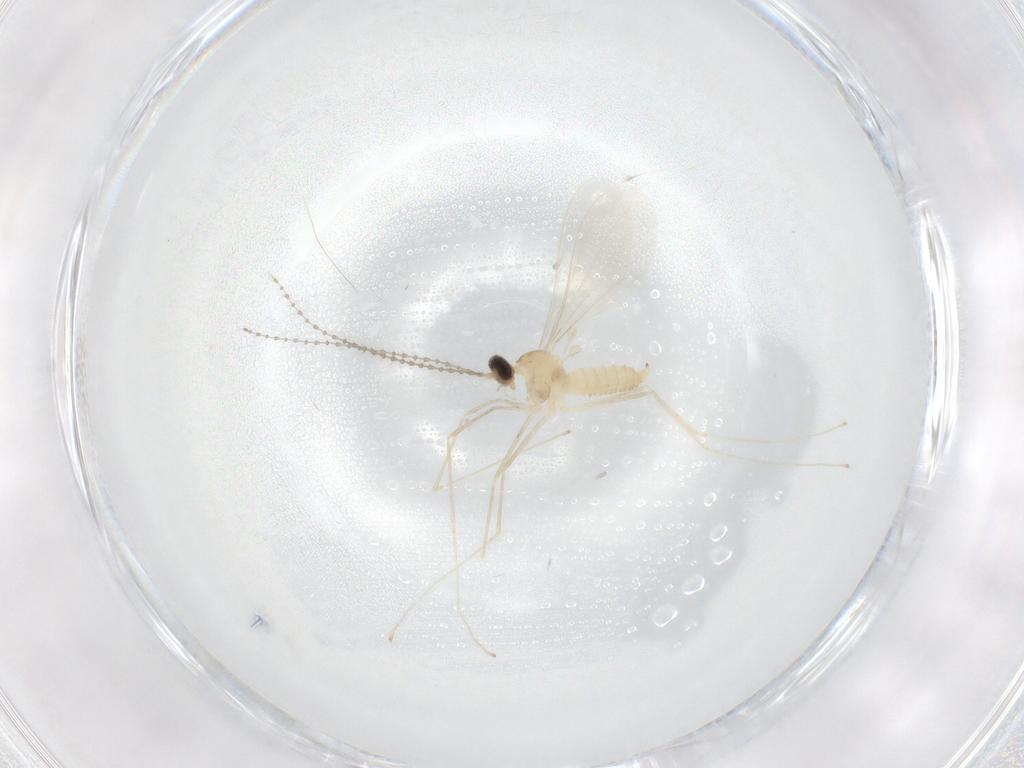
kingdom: Animalia
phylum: Arthropoda
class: Insecta
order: Diptera
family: Cecidomyiidae
